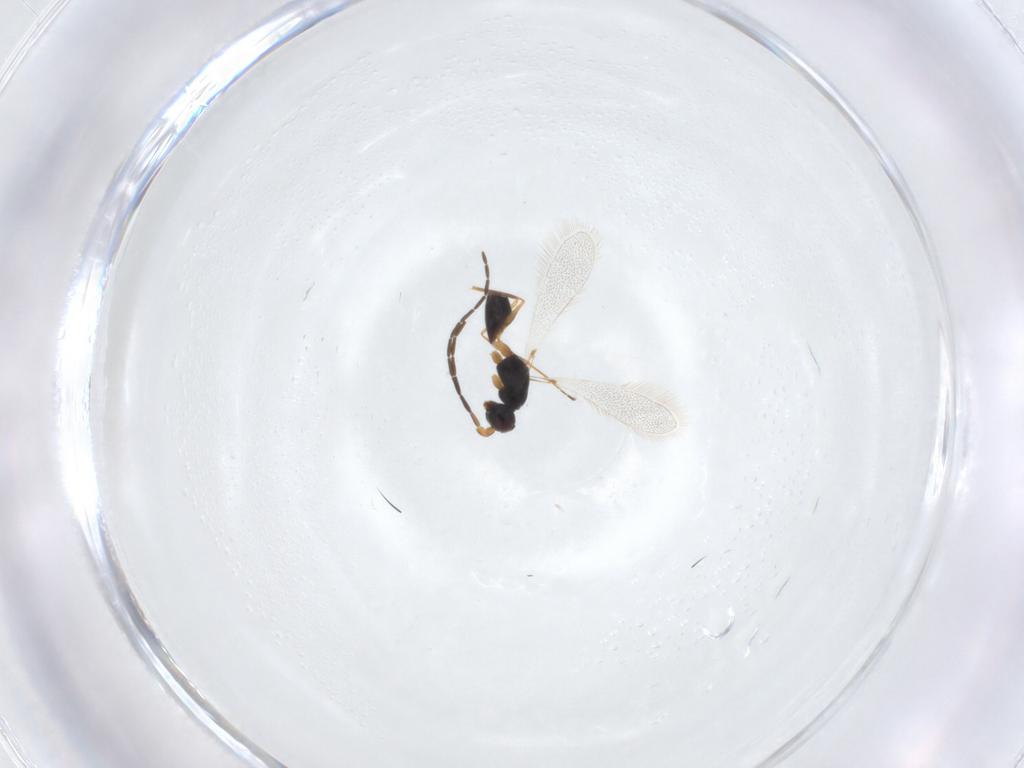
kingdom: Animalia
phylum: Arthropoda
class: Insecta
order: Hymenoptera
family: Mymaridae
